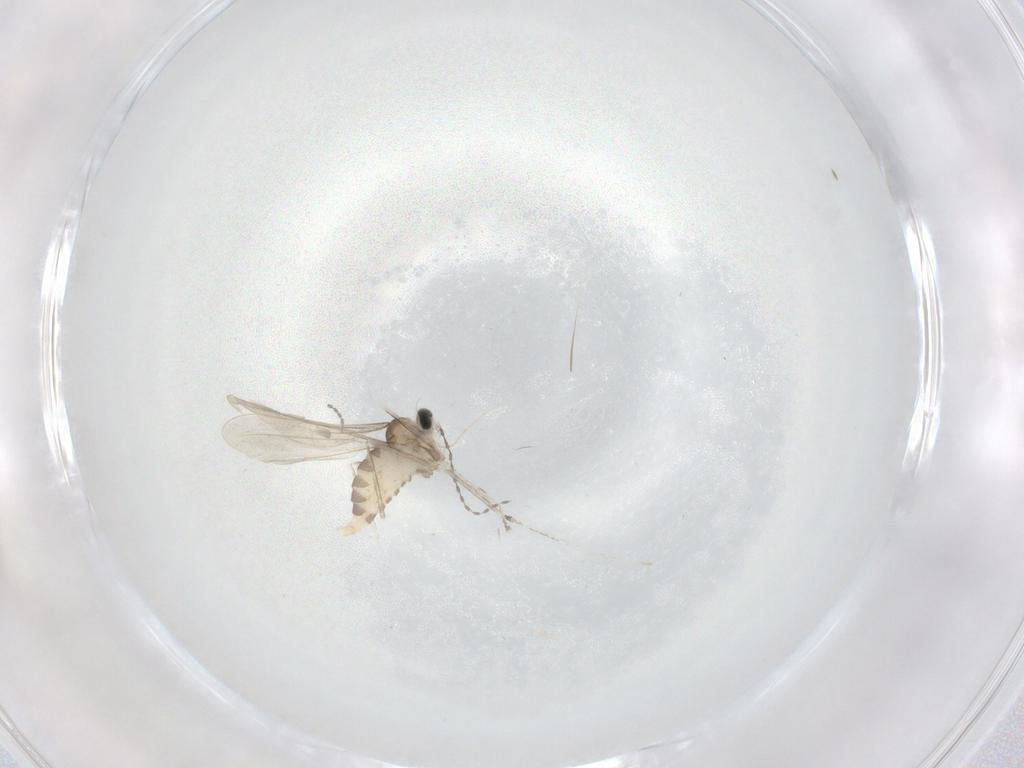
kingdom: Animalia
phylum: Arthropoda
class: Insecta
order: Diptera
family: Cecidomyiidae
